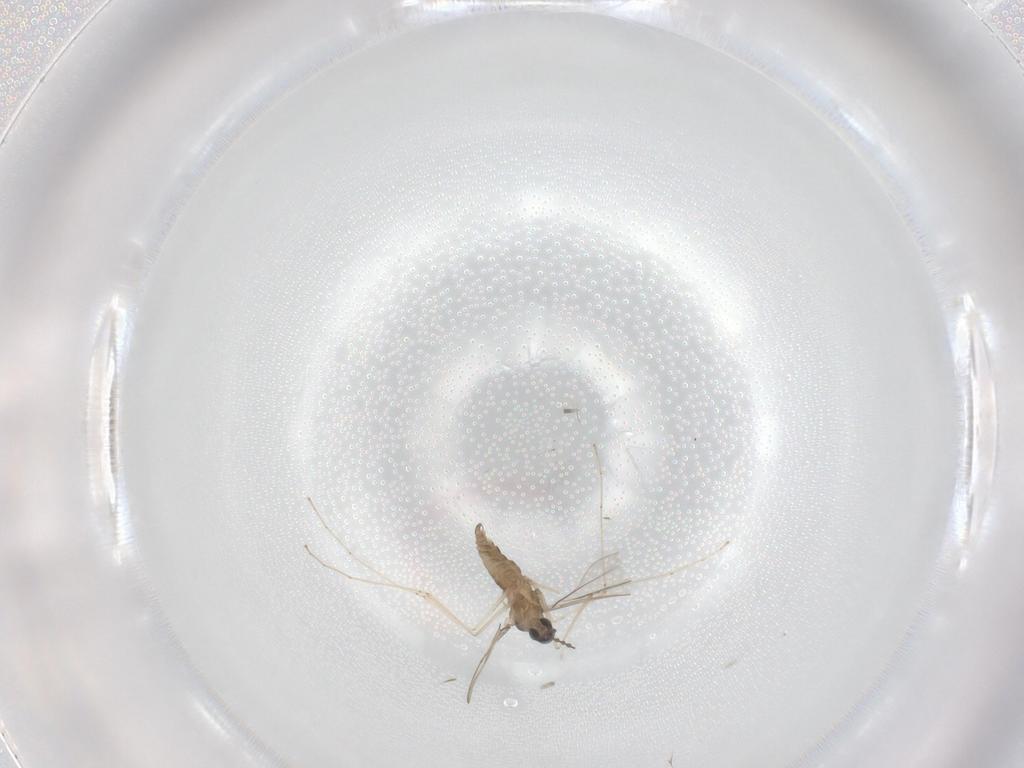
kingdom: Animalia
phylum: Arthropoda
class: Insecta
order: Diptera
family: Cecidomyiidae
